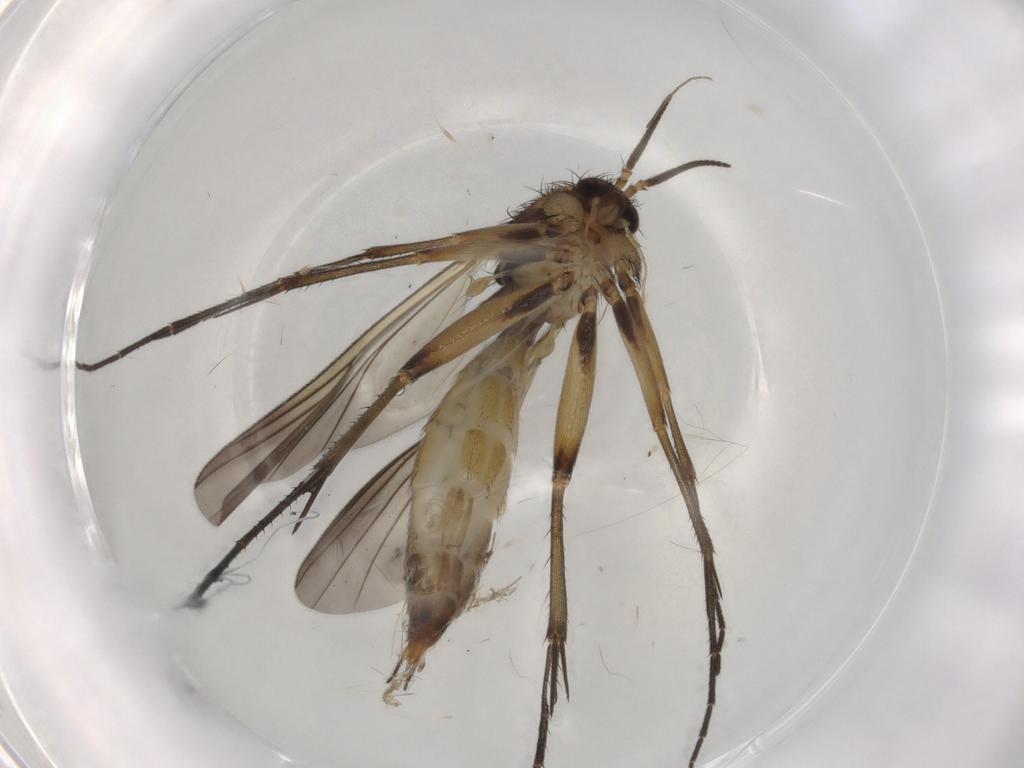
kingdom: Animalia
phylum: Arthropoda
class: Insecta
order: Diptera
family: Mycetophilidae
